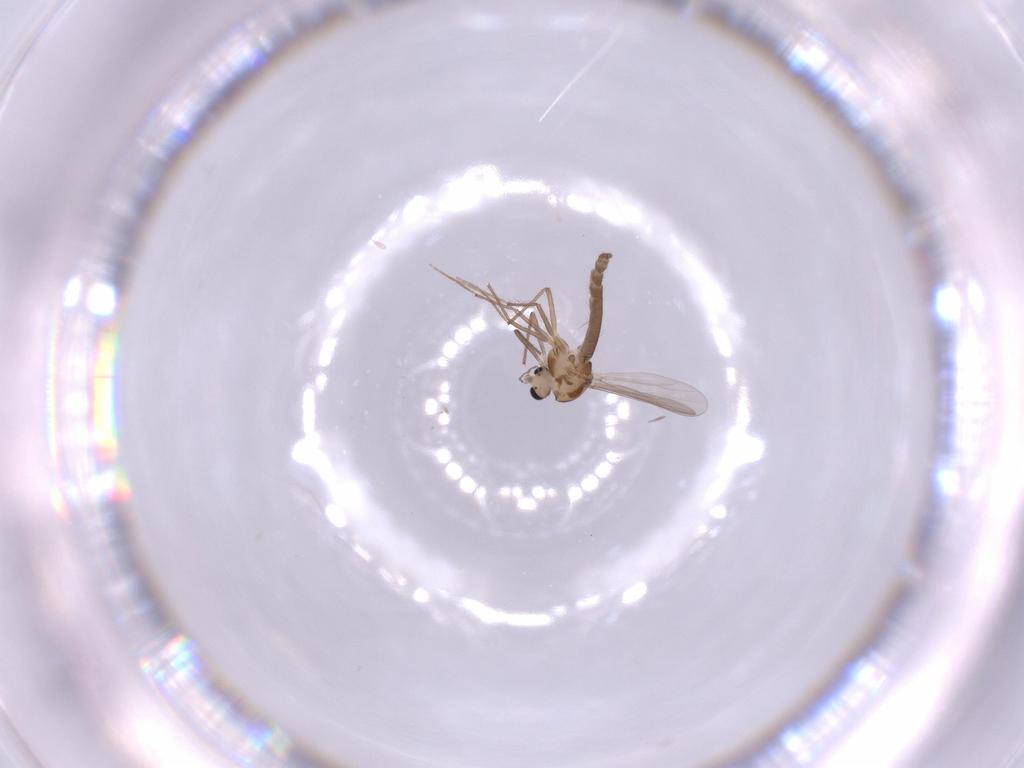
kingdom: Animalia
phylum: Arthropoda
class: Insecta
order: Diptera
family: Chironomidae
